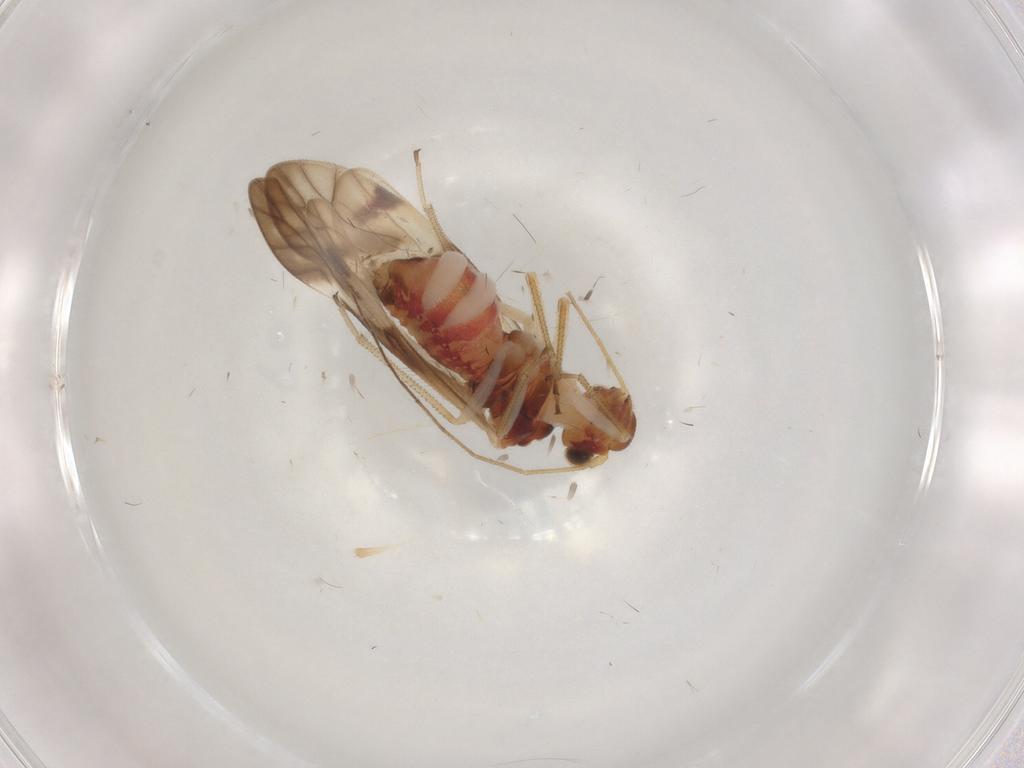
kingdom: Animalia
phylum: Arthropoda
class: Insecta
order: Psocodea
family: Caeciliusidae
